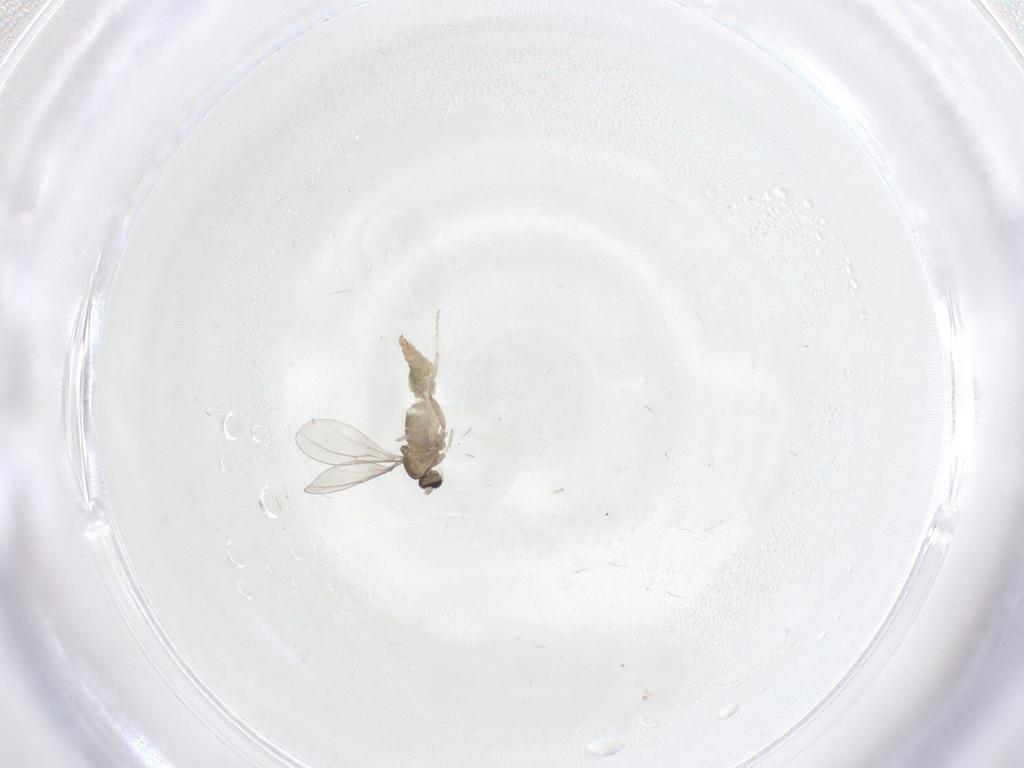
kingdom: Animalia
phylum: Arthropoda
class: Insecta
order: Diptera
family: Cecidomyiidae
